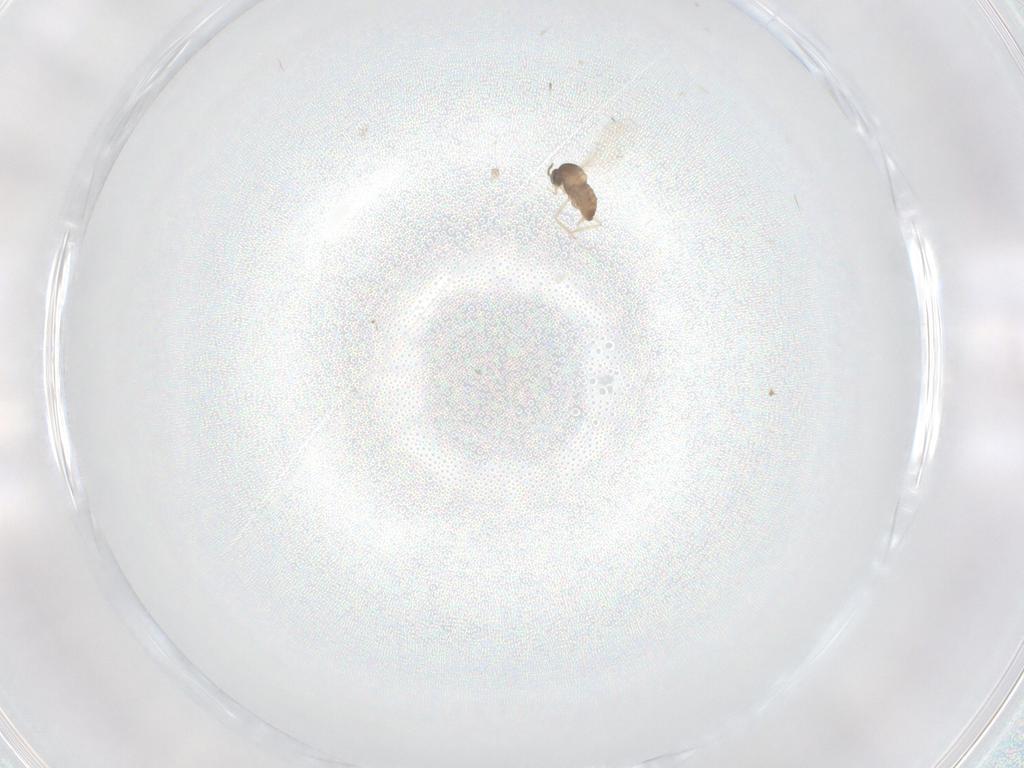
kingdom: Animalia
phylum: Arthropoda
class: Insecta
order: Diptera
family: Cecidomyiidae
